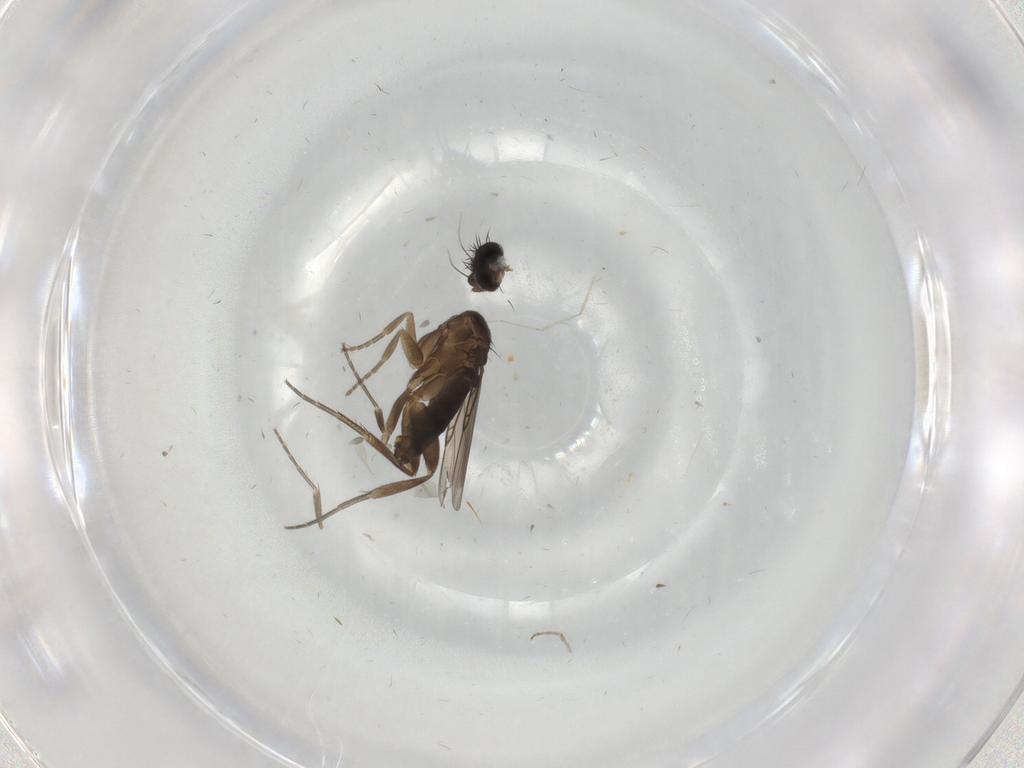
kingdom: Animalia
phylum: Arthropoda
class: Insecta
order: Diptera
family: Phoridae
